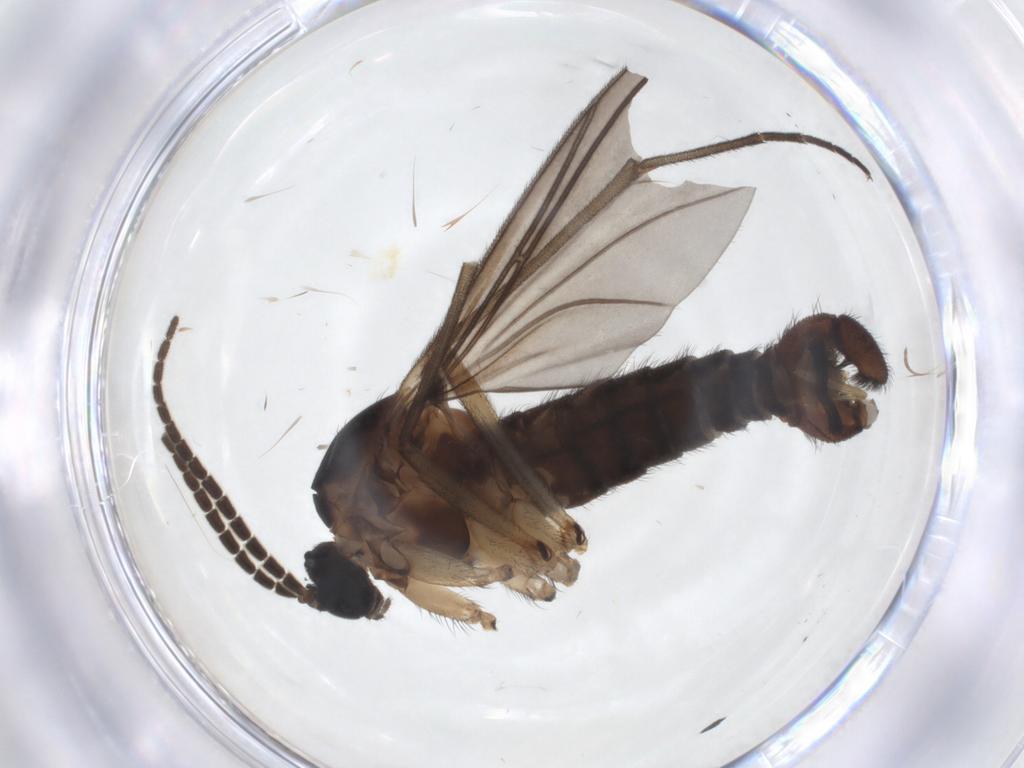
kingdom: Animalia
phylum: Arthropoda
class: Insecta
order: Diptera
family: Sciaridae
